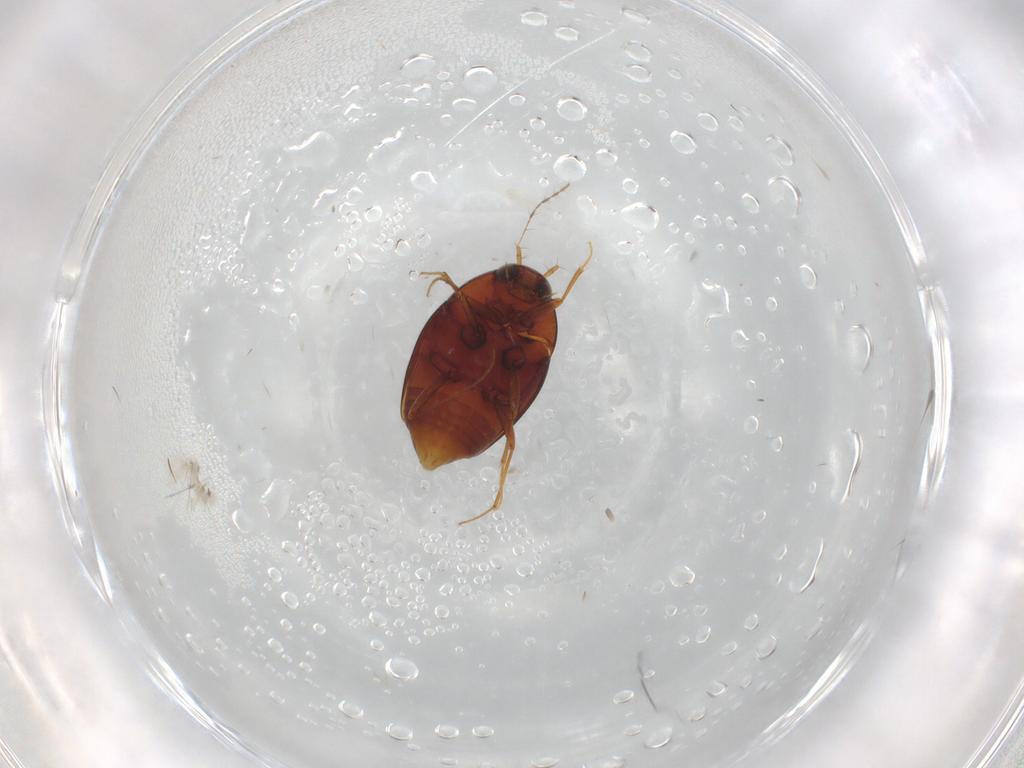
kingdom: Animalia
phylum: Arthropoda
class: Insecta
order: Coleoptera
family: Staphylinidae
